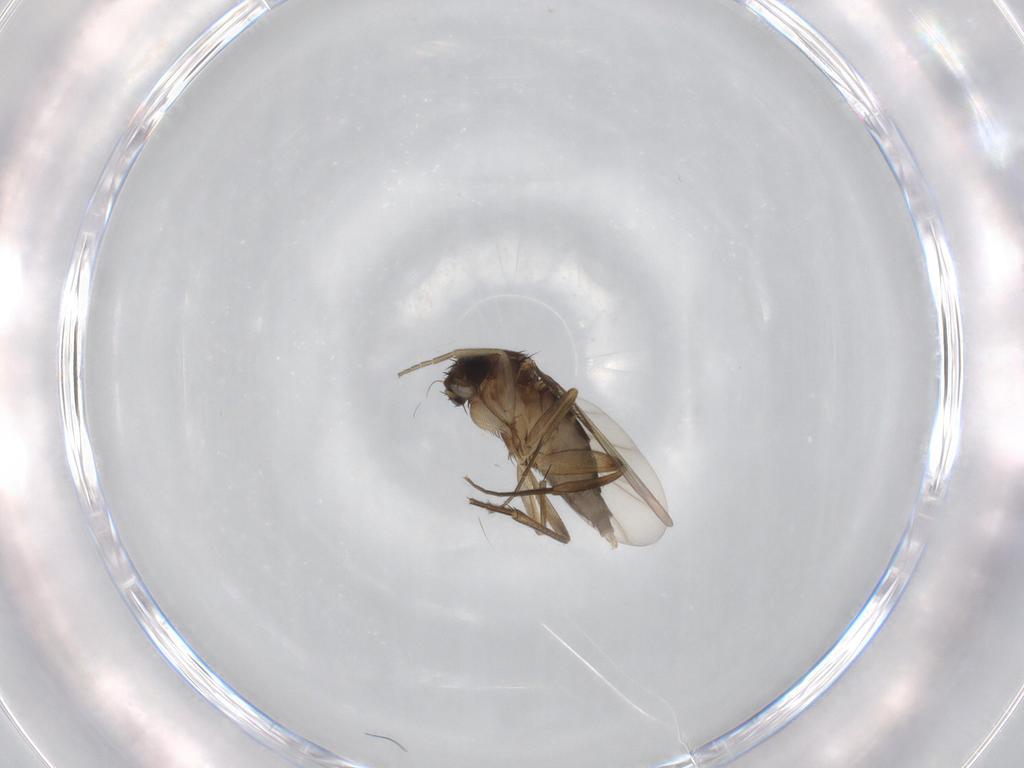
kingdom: Animalia
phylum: Arthropoda
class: Insecta
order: Diptera
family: Phoridae
